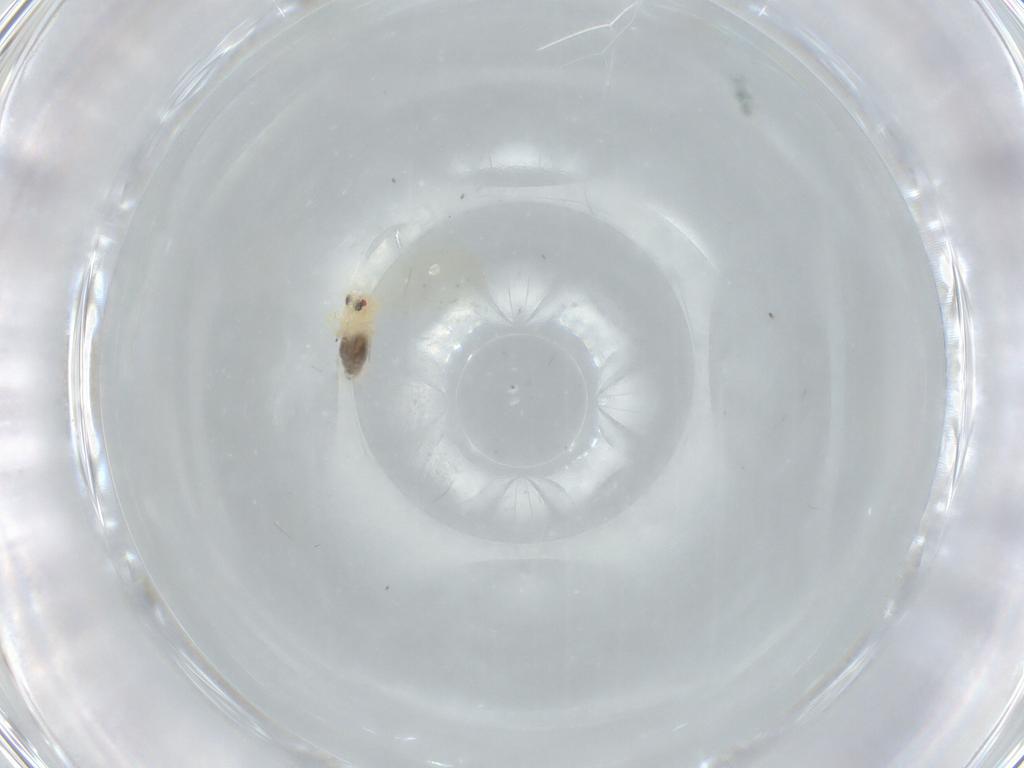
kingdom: Animalia
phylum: Arthropoda
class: Insecta
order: Hemiptera
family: Aleyrodidae
